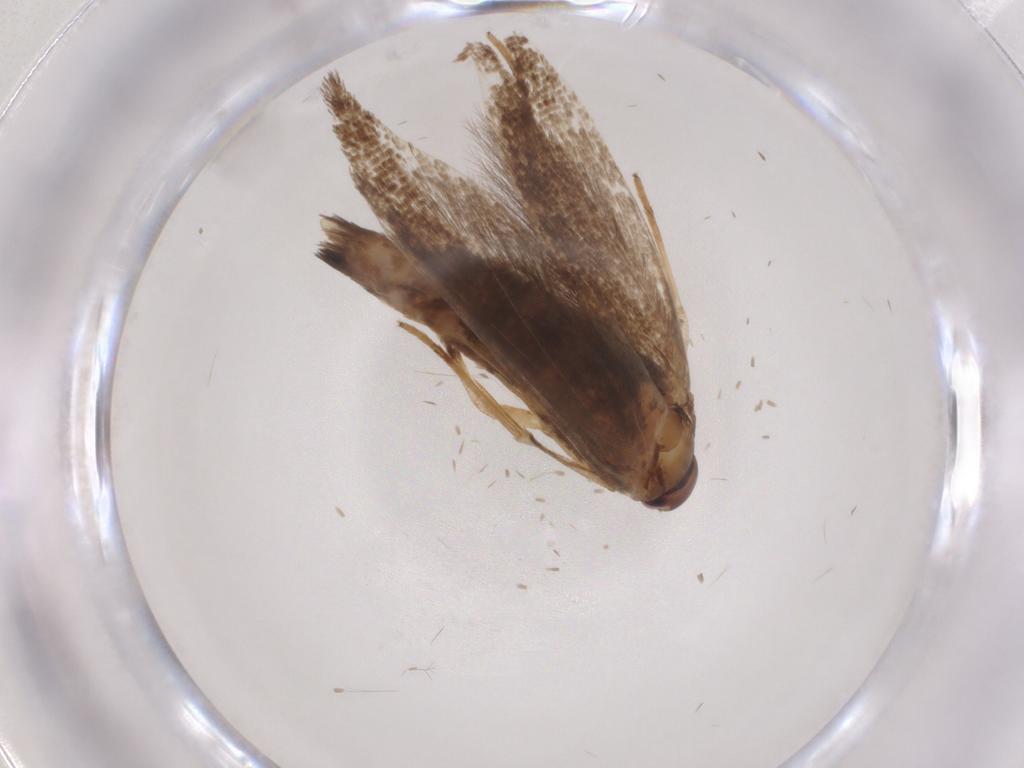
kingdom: Animalia
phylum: Arthropoda
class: Insecta
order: Lepidoptera
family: Cosmopterigidae
